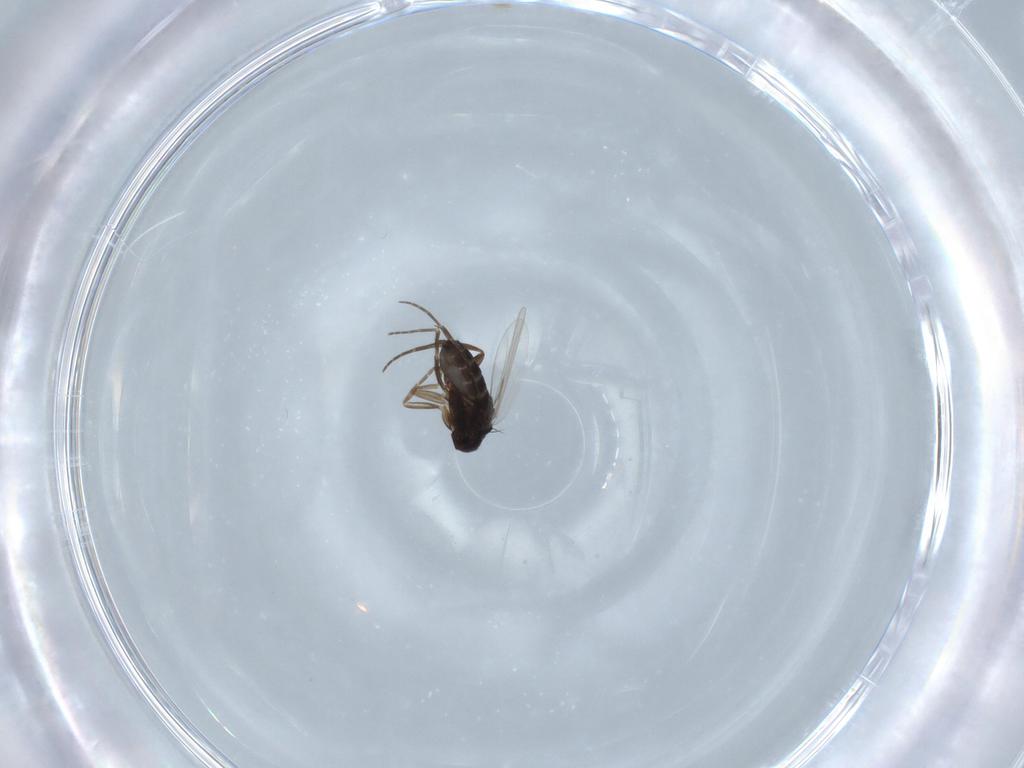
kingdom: Animalia
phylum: Arthropoda
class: Insecta
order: Diptera
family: Phoridae
